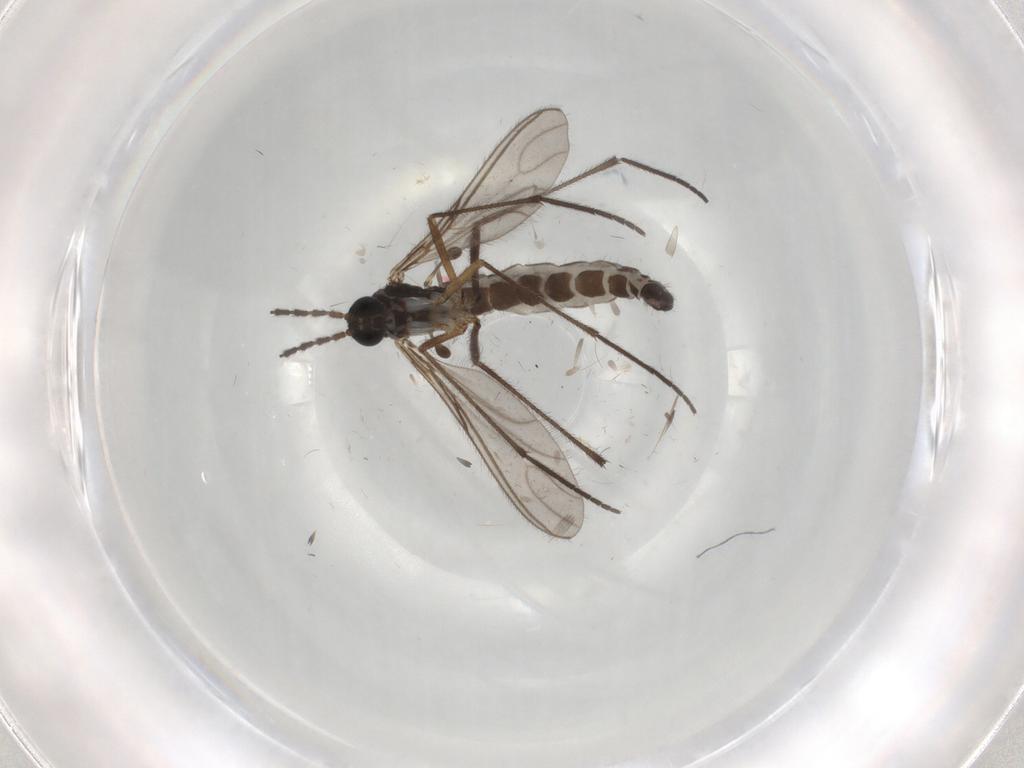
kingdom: Animalia
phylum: Arthropoda
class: Insecta
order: Diptera
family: Sciaridae
